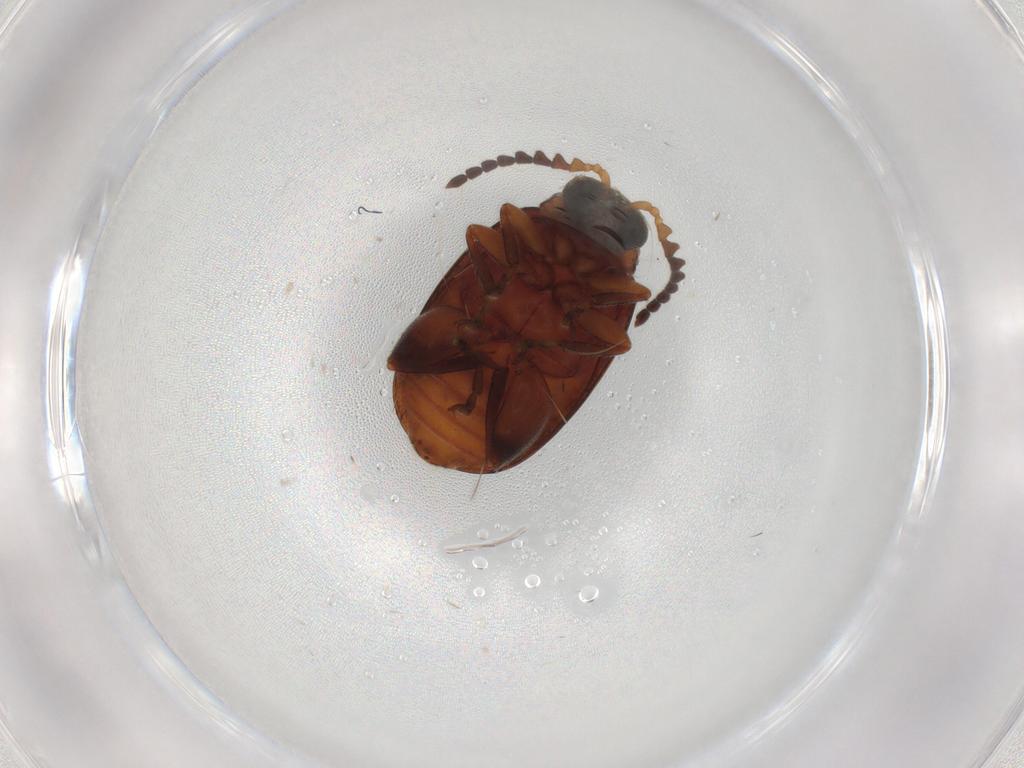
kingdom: Animalia
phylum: Arthropoda
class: Insecta
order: Coleoptera
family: Chrysomelidae
